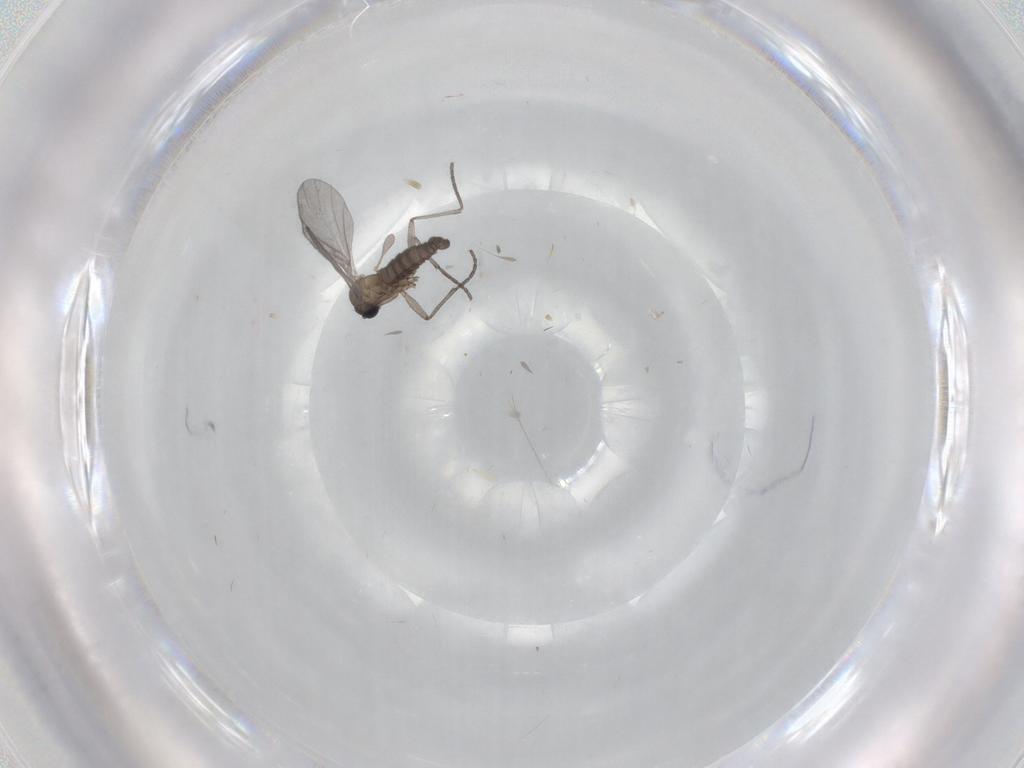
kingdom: Animalia
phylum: Arthropoda
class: Insecta
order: Diptera
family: Sciaridae
